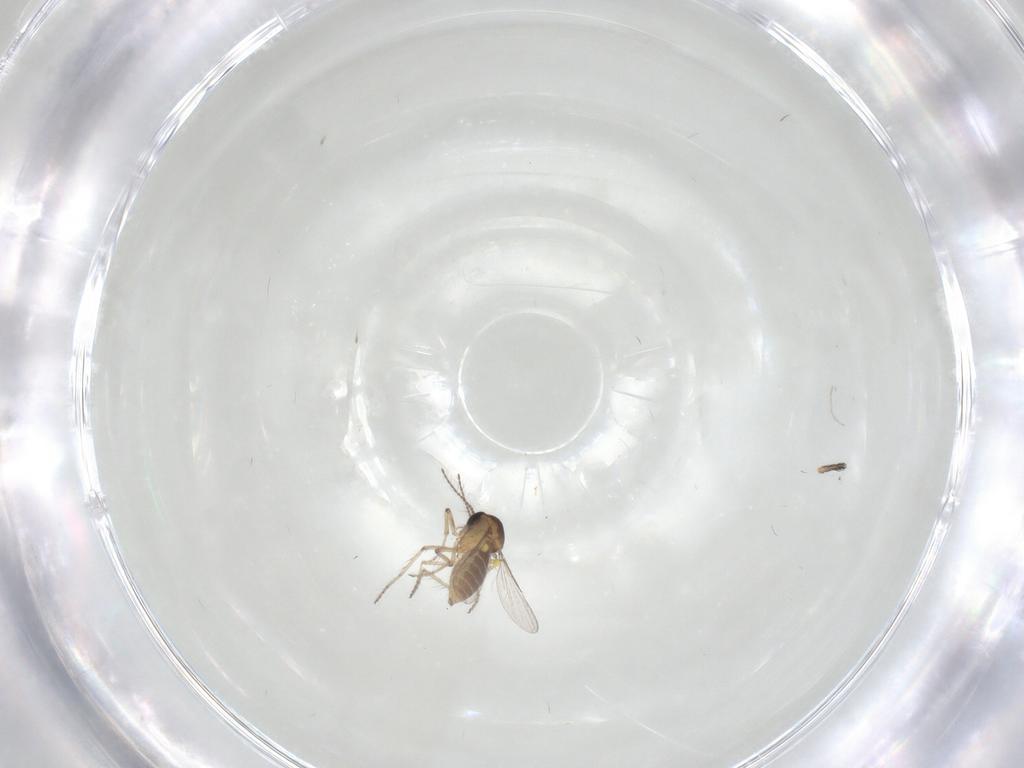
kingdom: Animalia
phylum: Arthropoda
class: Insecta
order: Diptera
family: Ceratopogonidae
